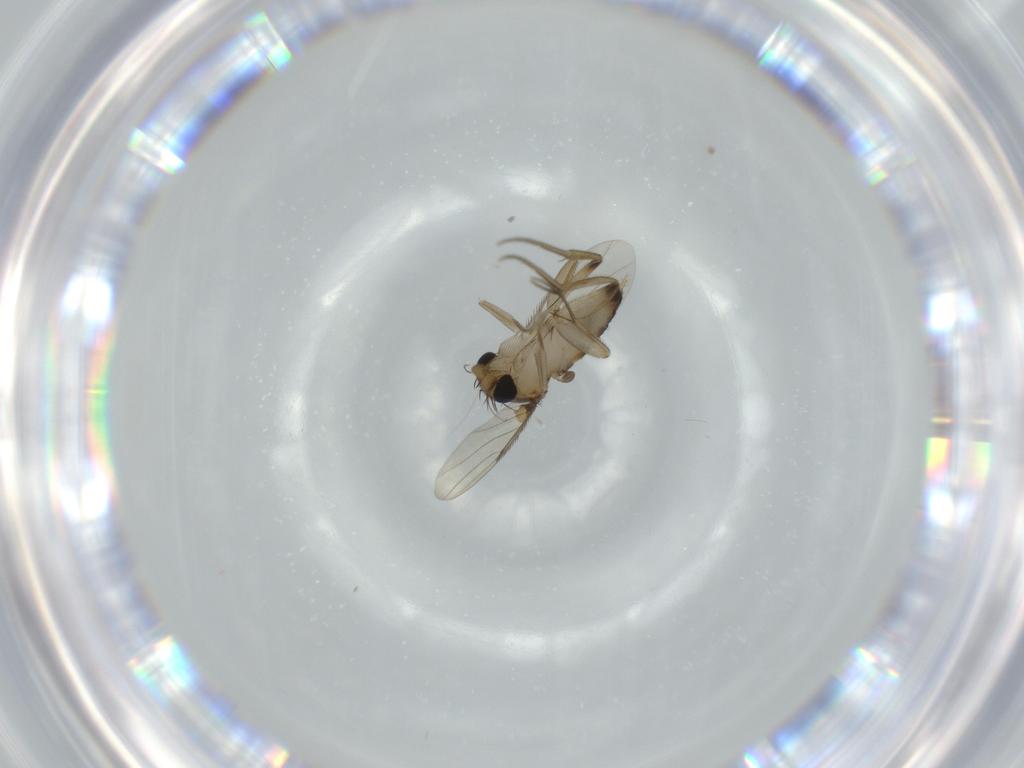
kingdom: Animalia
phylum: Arthropoda
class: Insecta
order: Diptera
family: Phoridae
